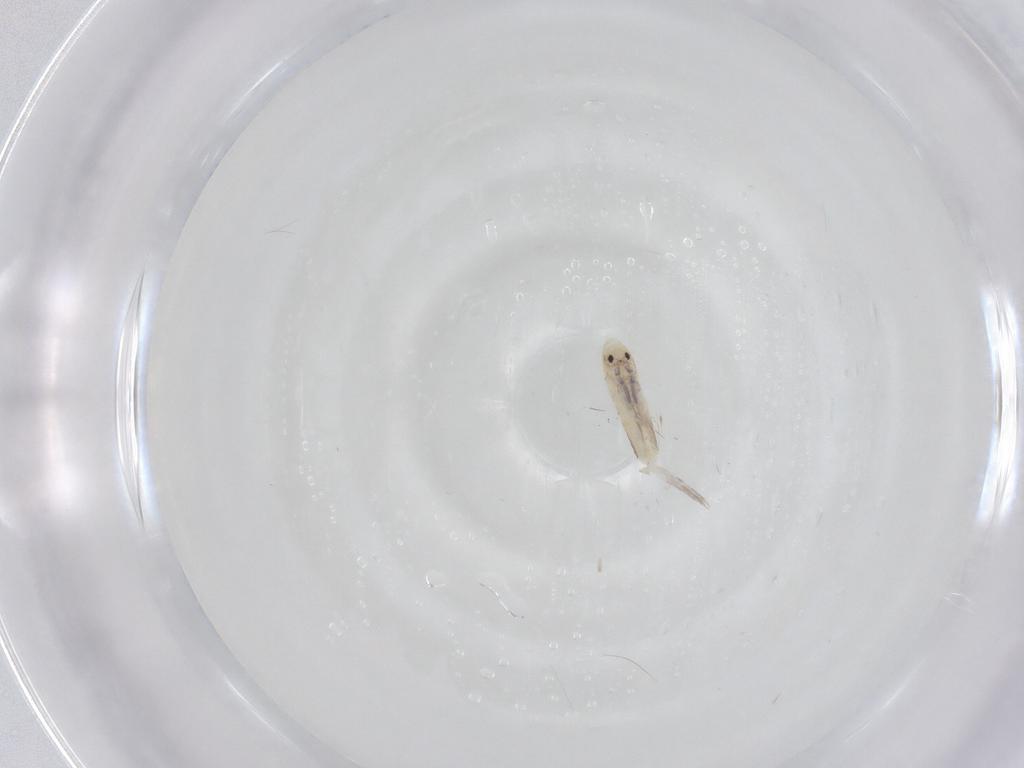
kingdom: Animalia
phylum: Arthropoda
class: Collembola
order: Entomobryomorpha
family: Entomobryidae
